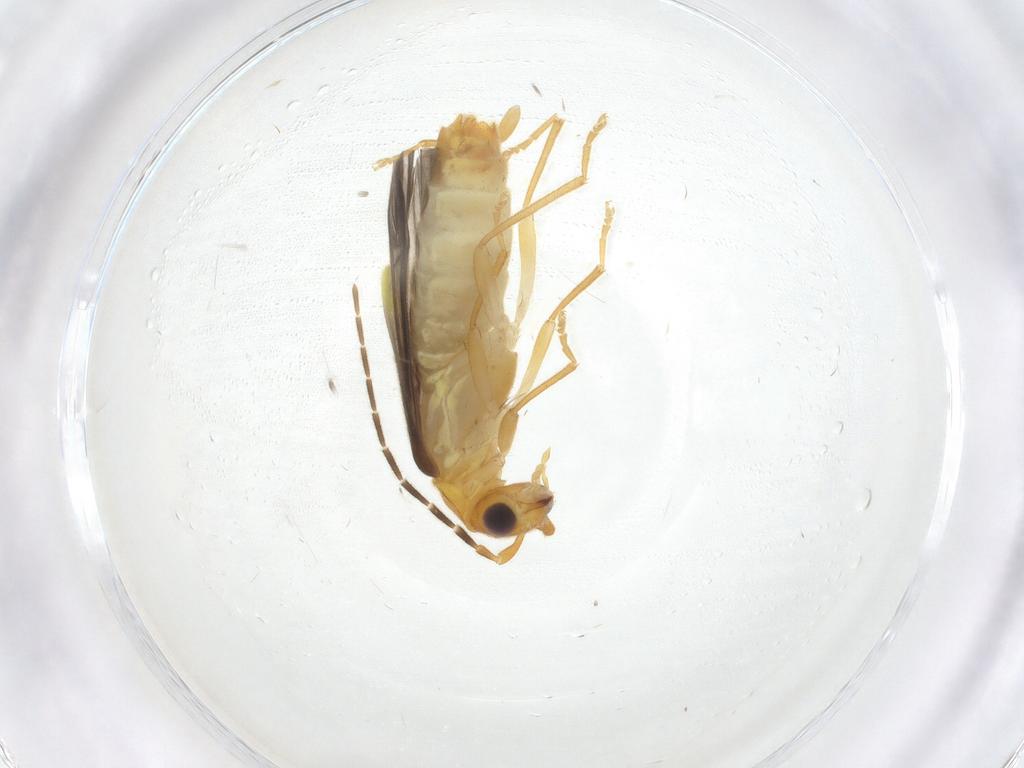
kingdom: Animalia
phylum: Arthropoda
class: Insecta
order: Coleoptera
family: Cantharidae
